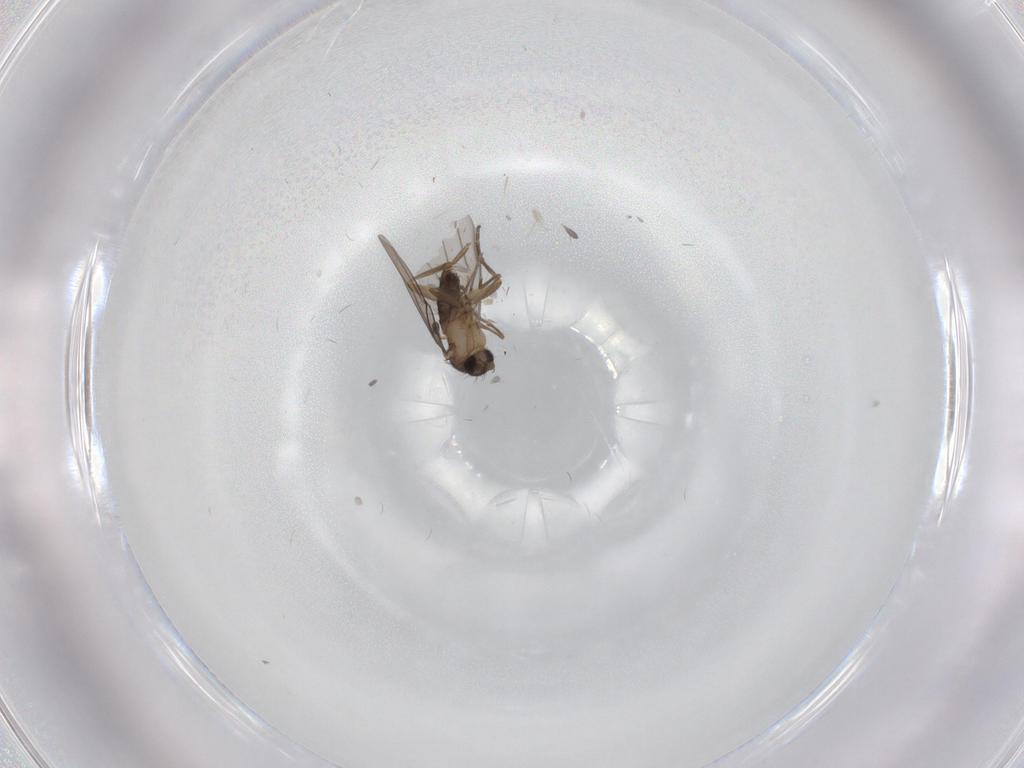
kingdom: Animalia
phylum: Arthropoda
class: Insecta
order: Diptera
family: Phoridae
